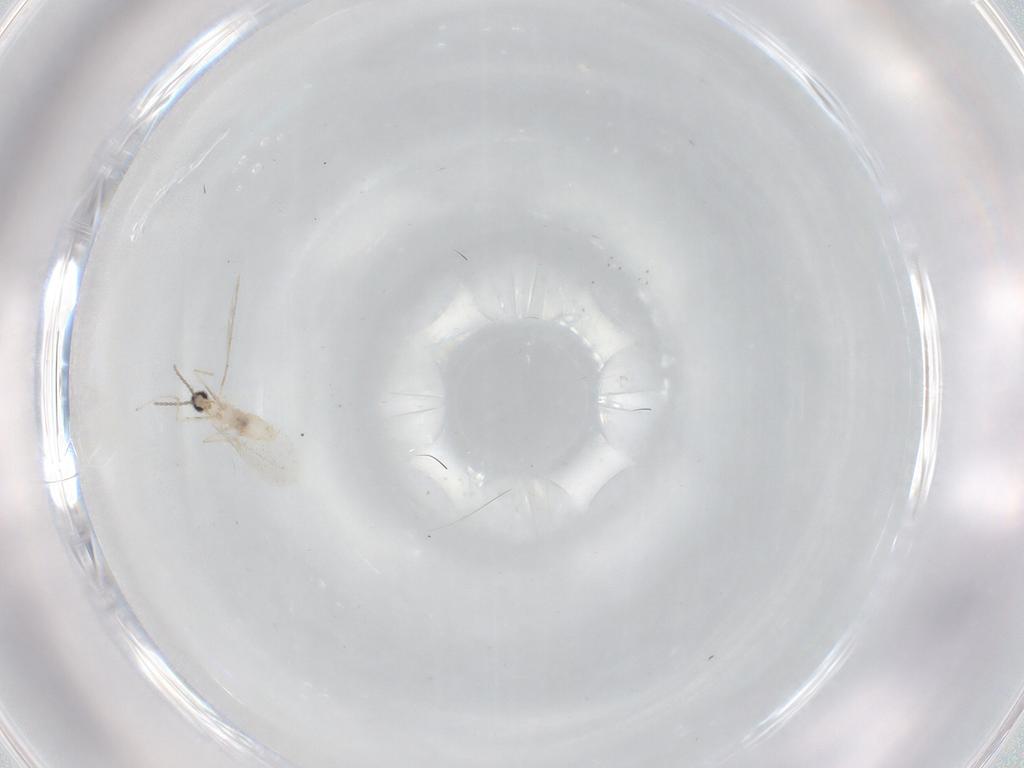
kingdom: Animalia
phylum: Arthropoda
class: Insecta
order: Diptera
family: Cecidomyiidae
